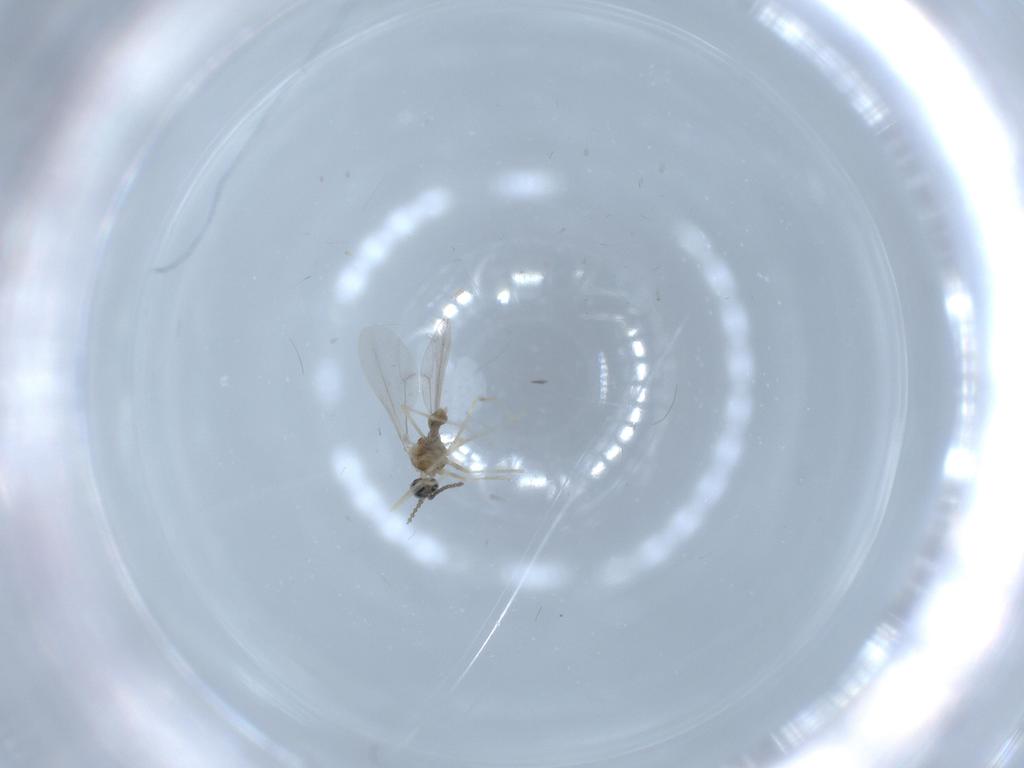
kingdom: Animalia
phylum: Arthropoda
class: Insecta
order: Diptera
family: Cecidomyiidae
